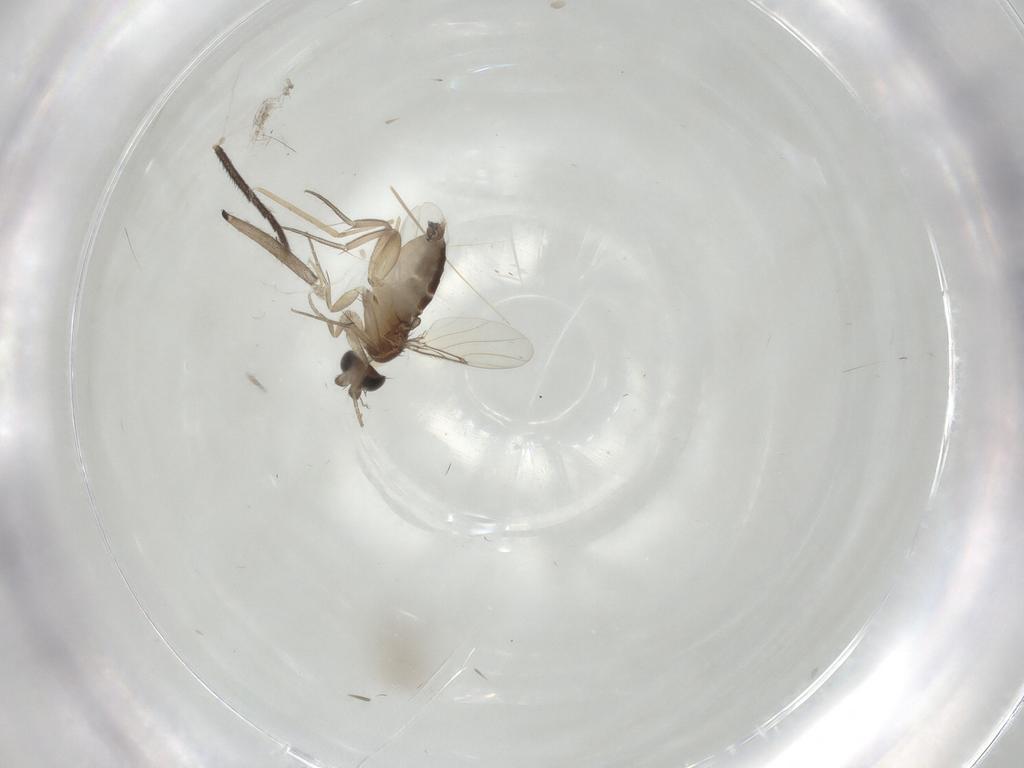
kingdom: Animalia
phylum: Arthropoda
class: Insecta
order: Diptera
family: Phoridae
